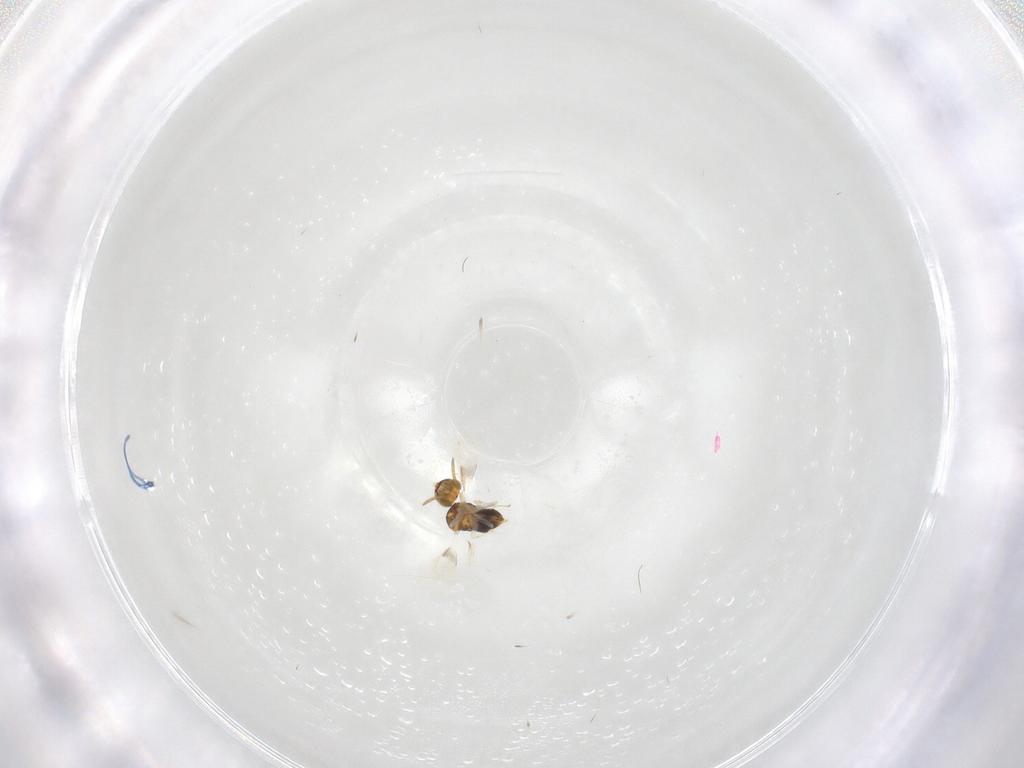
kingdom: Animalia
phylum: Arthropoda
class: Insecta
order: Hymenoptera
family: Aphelinidae
